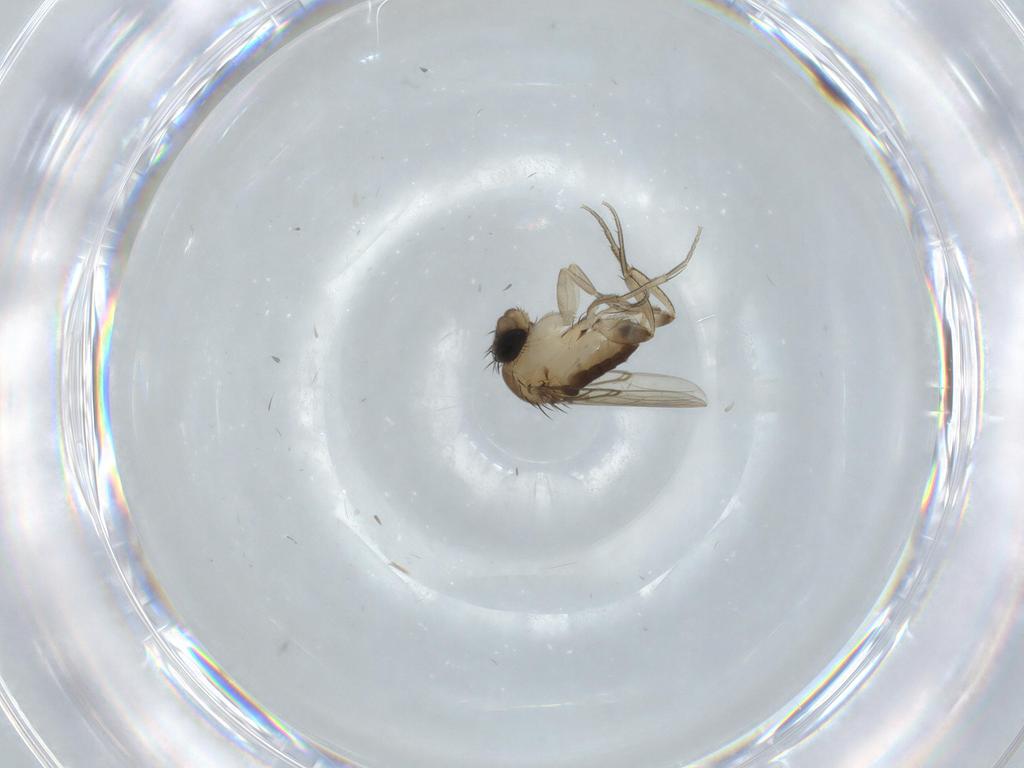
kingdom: Animalia
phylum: Arthropoda
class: Insecta
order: Diptera
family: Phoridae
